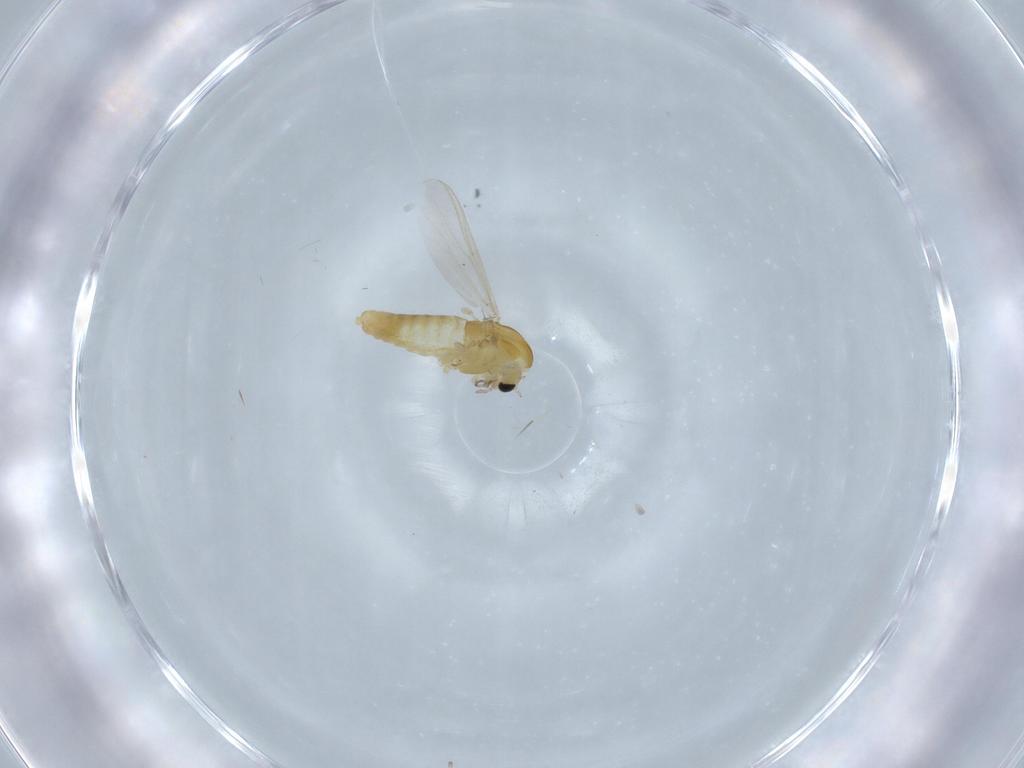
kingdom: Animalia
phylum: Arthropoda
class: Insecta
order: Diptera
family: Chironomidae
